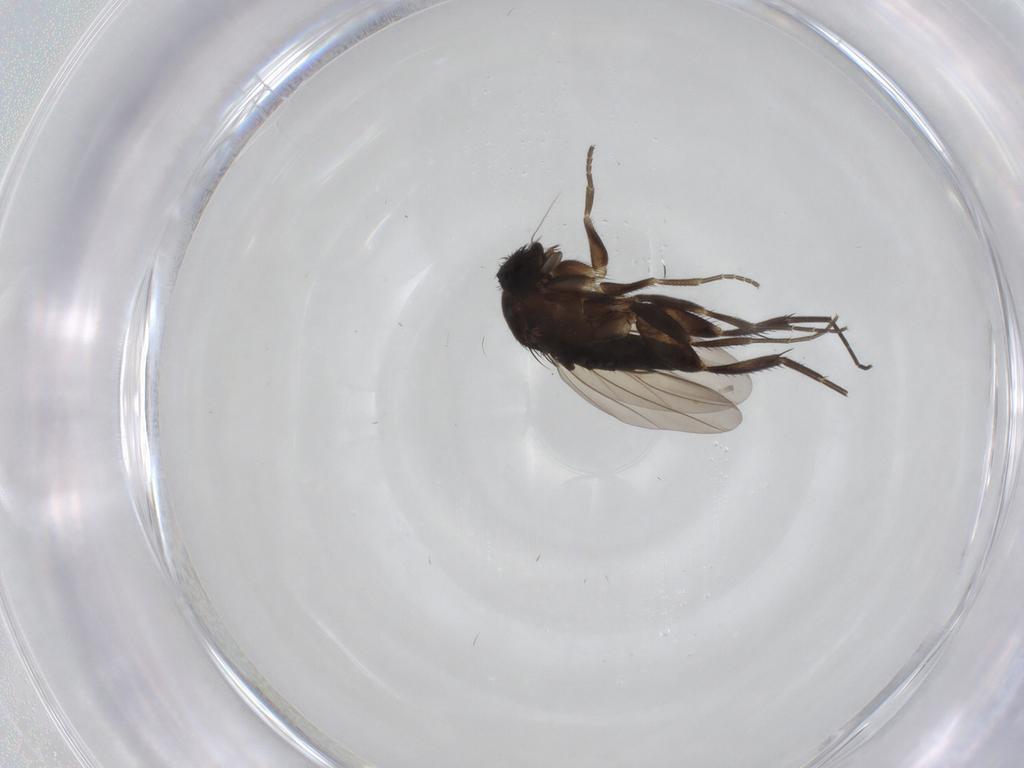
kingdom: Animalia
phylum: Arthropoda
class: Insecta
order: Diptera
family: Phoridae
